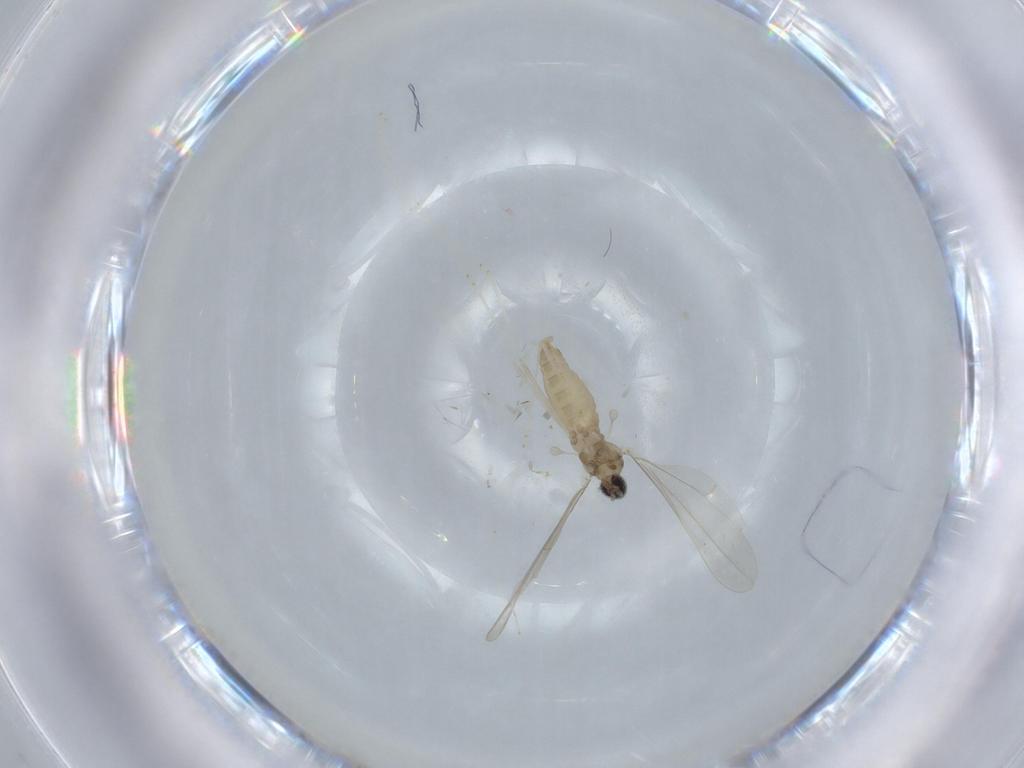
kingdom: Animalia
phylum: Arthropoda
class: Insecta
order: Diptera
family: Cecidomyiidae
